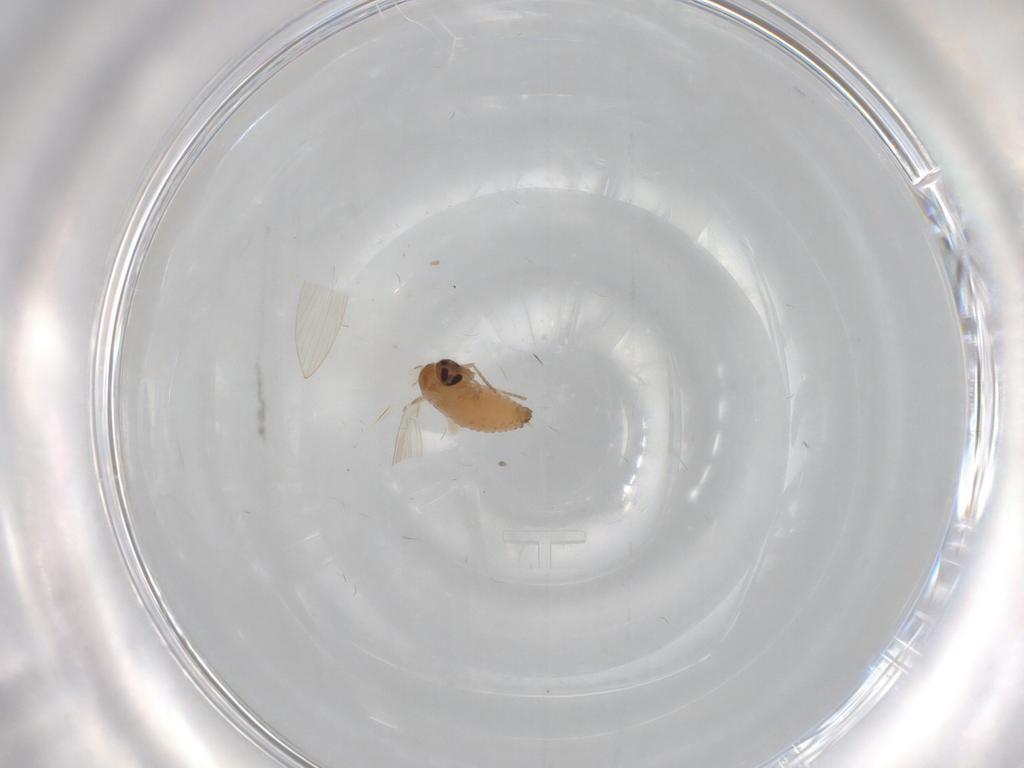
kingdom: Animalia
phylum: Arthropoda
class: Insecta
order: Diptera
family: Psychodidae
